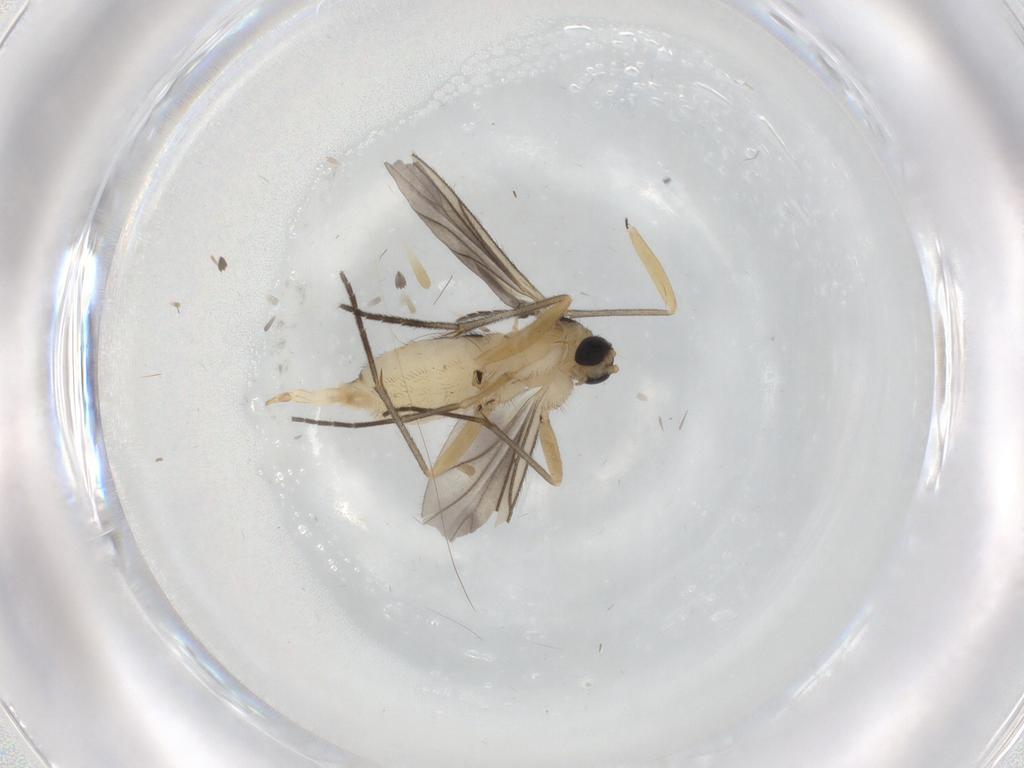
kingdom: Animalia
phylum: Arthropoda
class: Insecta
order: Diptera
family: Sciaridae
